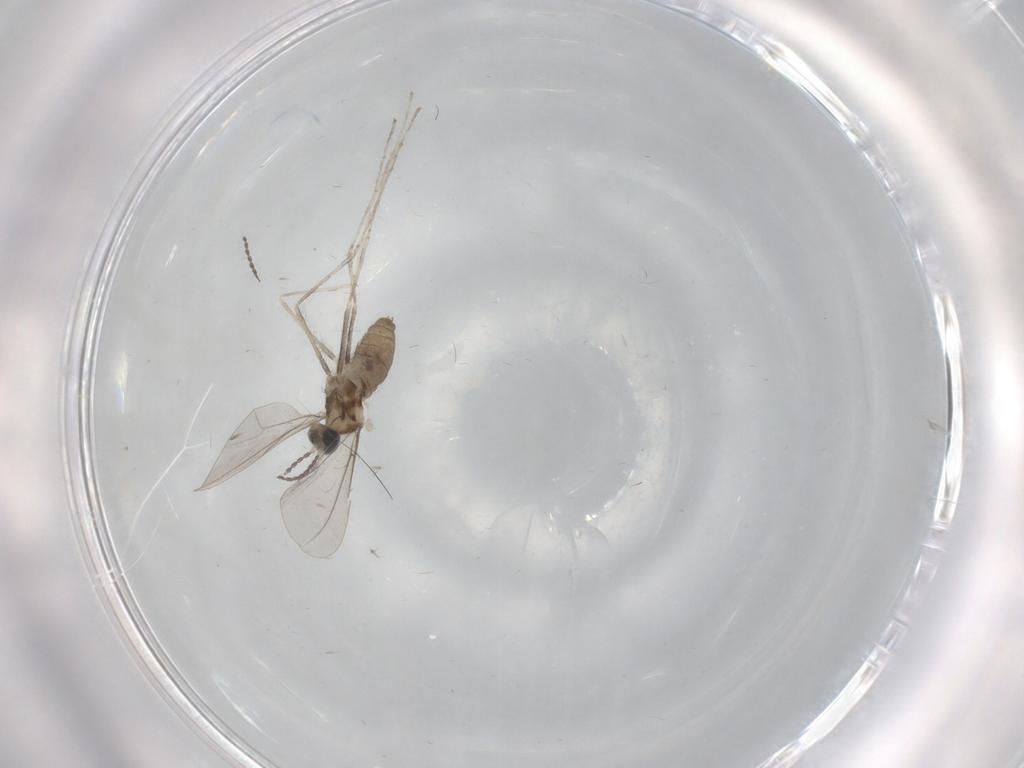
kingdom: Animalia
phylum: Arthropoda
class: Insecta
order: Diptera
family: Cecidomyiidae
